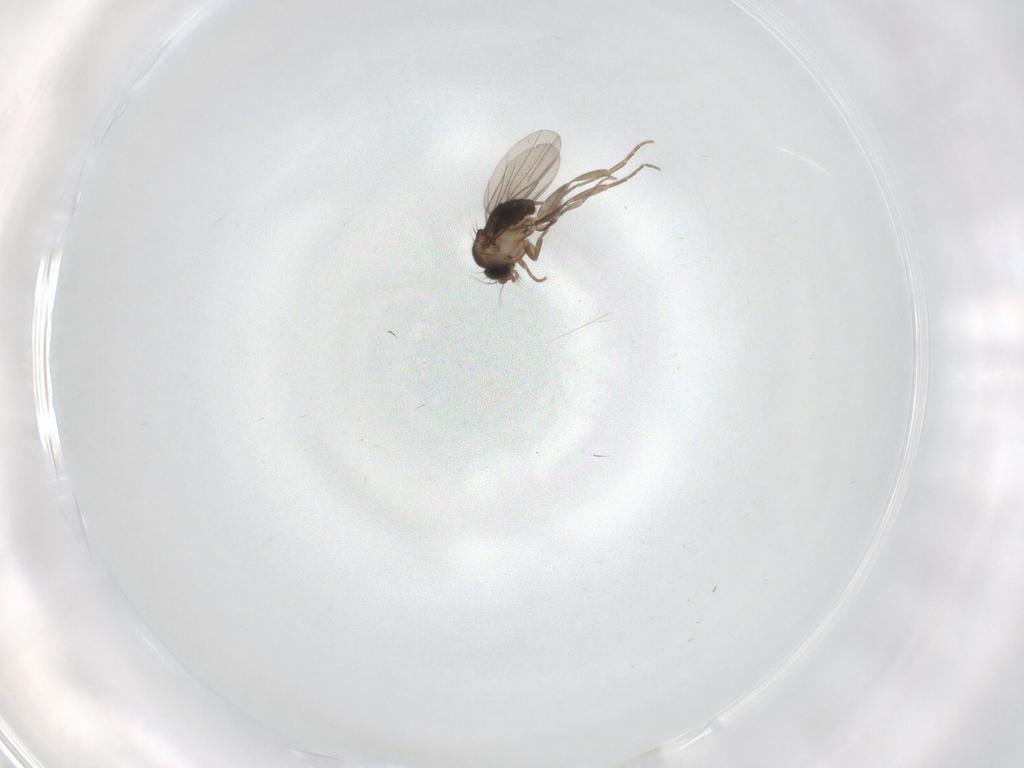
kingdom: Animalia
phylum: Arthropoda
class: Insecta
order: Diptera
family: Phoridae
